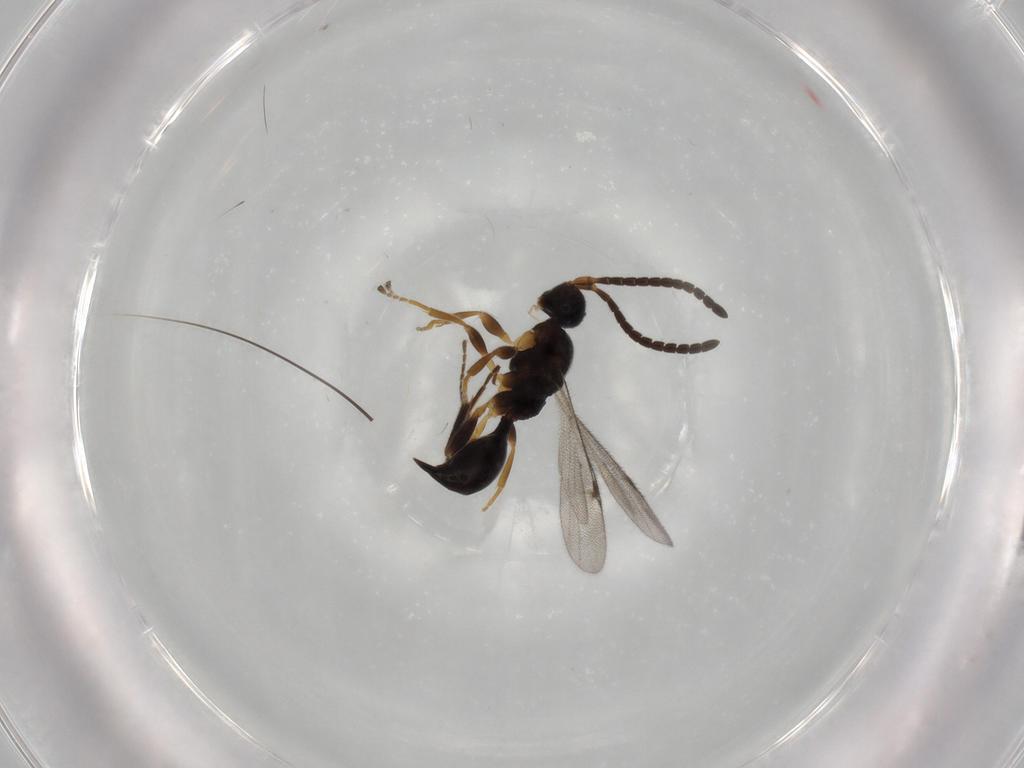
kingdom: Animalia
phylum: Arthropoda
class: Insecta
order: Hymenoptera
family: Proctotrupidae
